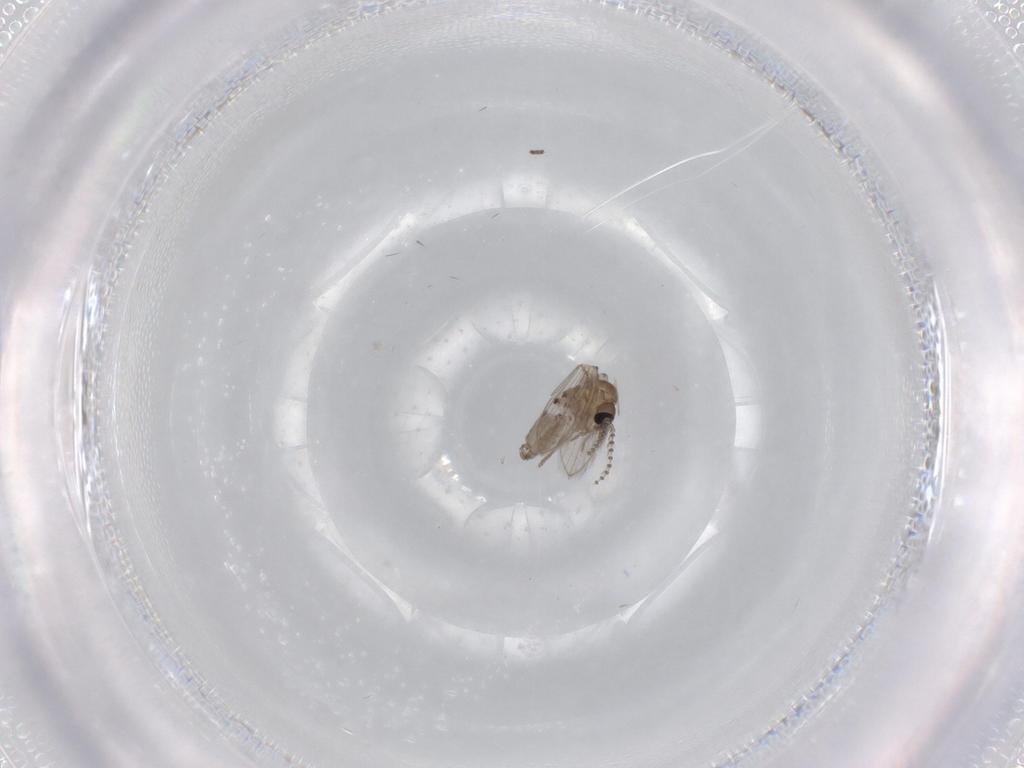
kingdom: Animalia
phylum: Arthropoda
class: Insecta
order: Diptera
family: Psychodidae
